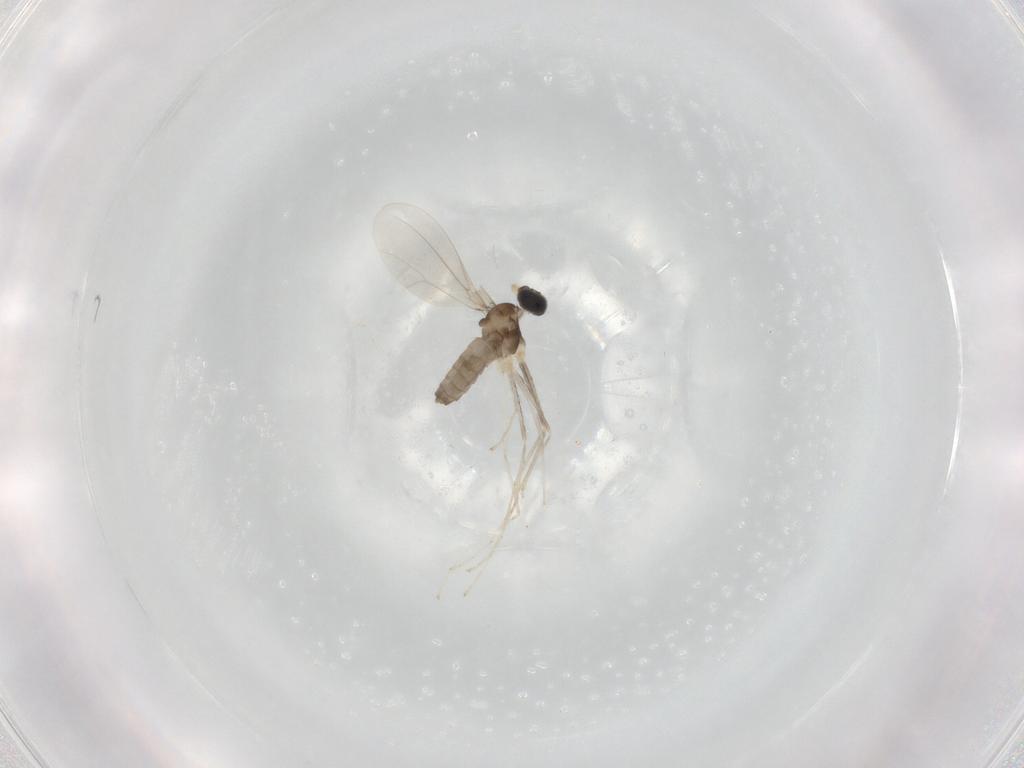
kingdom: Animalia
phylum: Arthropoda
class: Insecta
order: Diptera
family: Cecidomyiidae
